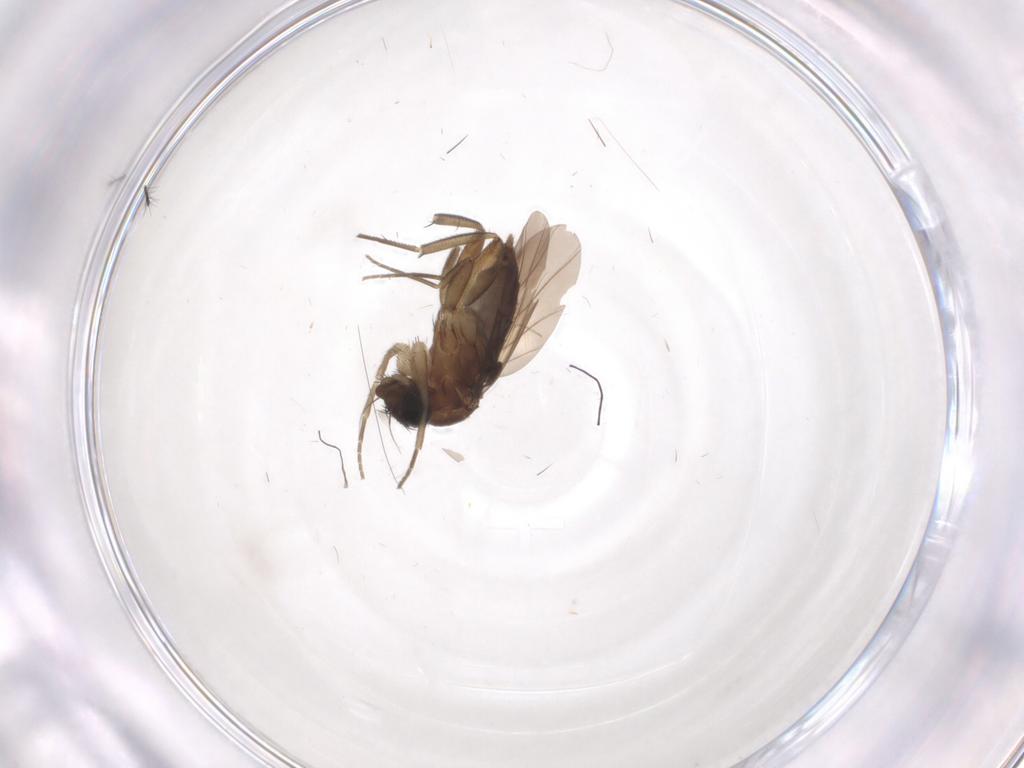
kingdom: Animalia
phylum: Arthropoda
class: Insecta
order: Diptera
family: Phoridae
